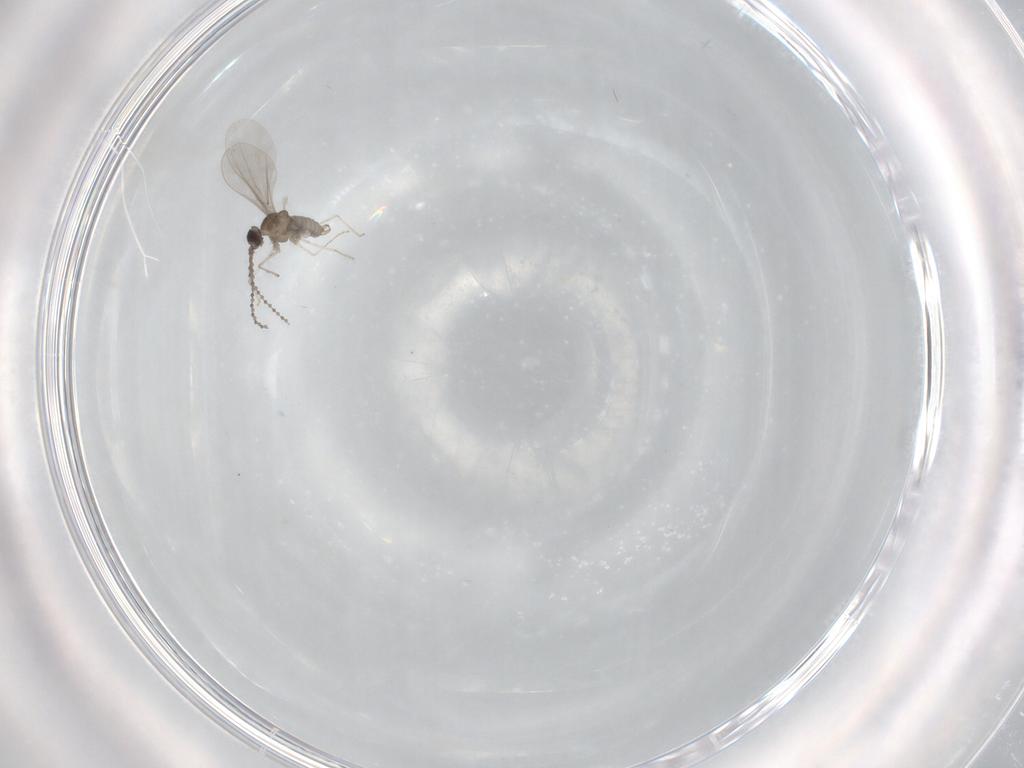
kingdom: Animalia
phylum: Arthropoda
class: Insecta
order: Diptera
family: Cecidomyiidae
